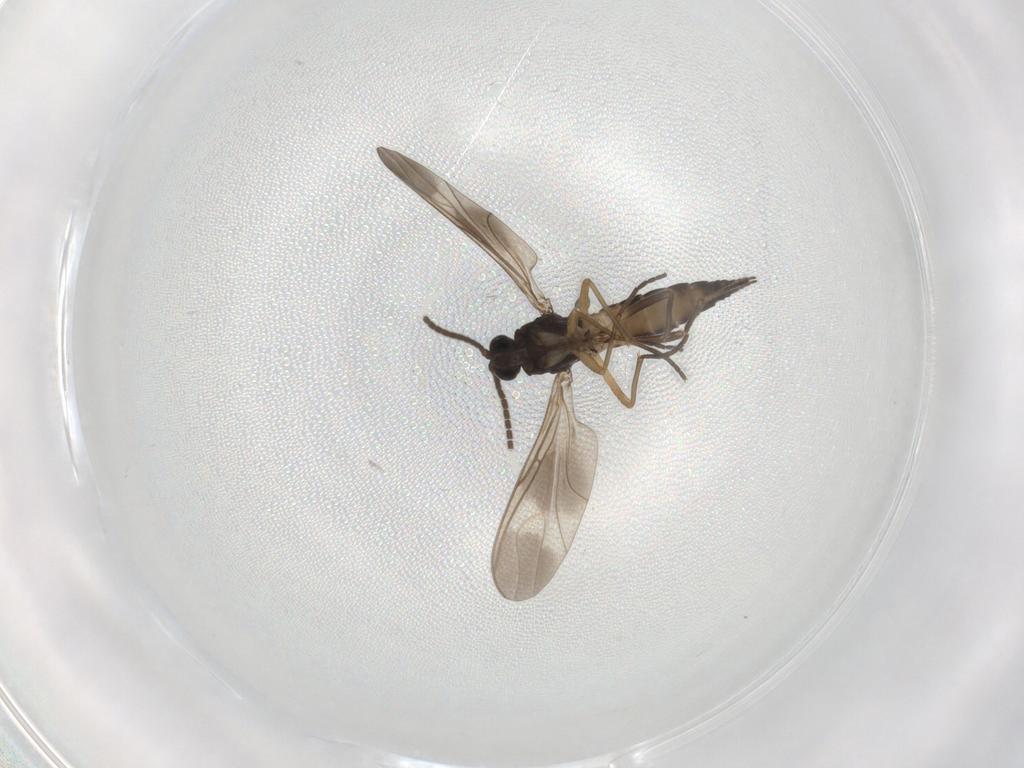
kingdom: Animalia
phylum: Arthropoda
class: Insecta
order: Diptera
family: Sciaridae
